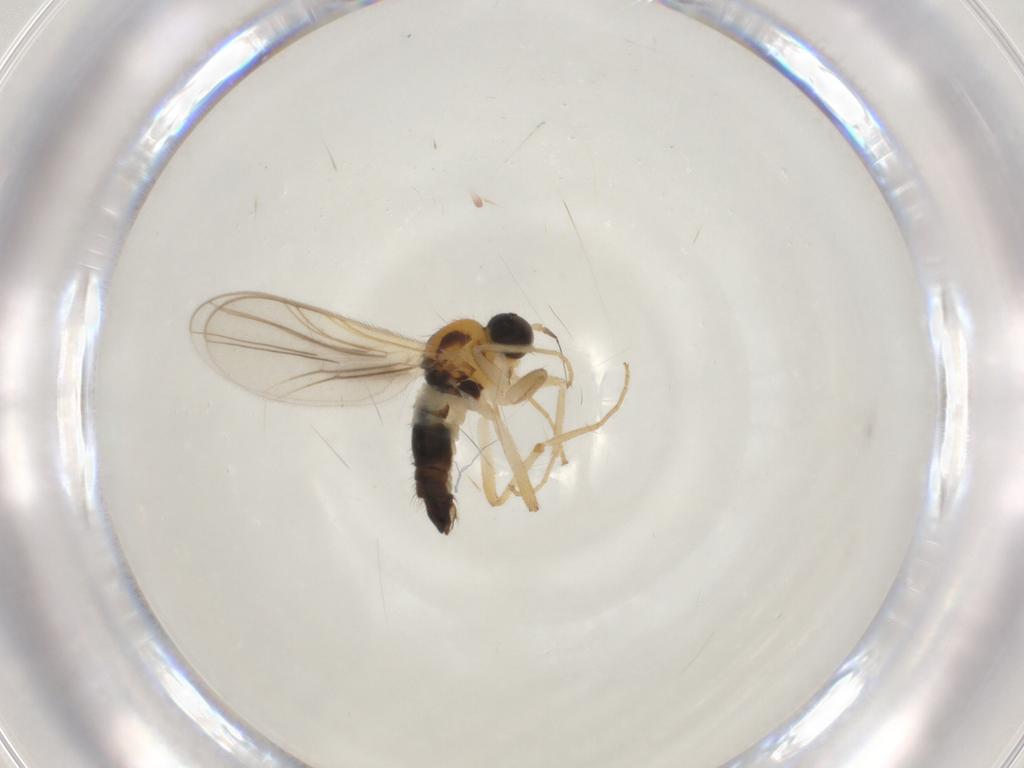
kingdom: Animalia
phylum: Arthropoda
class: Insecta
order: Diptera
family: Hybotidae
